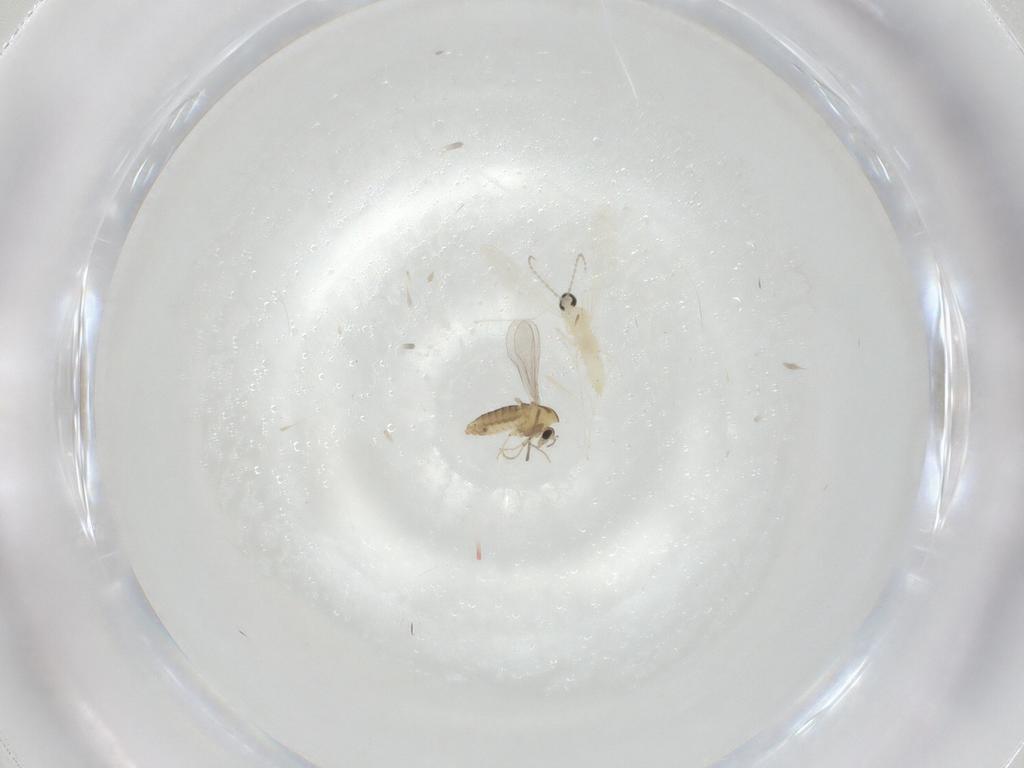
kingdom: Animalia
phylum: Arthropoda
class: Insecta
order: Diptera
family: Cecidomyiidae
